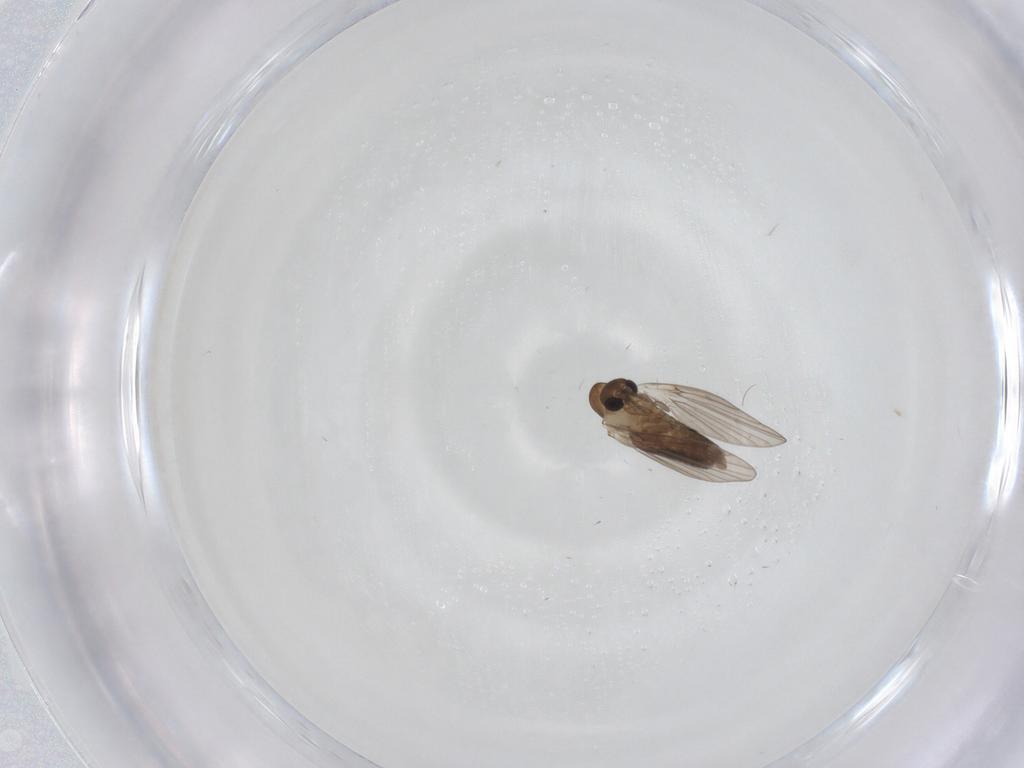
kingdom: Animalia
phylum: Arthropoda
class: Insecta
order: Diptera
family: Psychodidae
